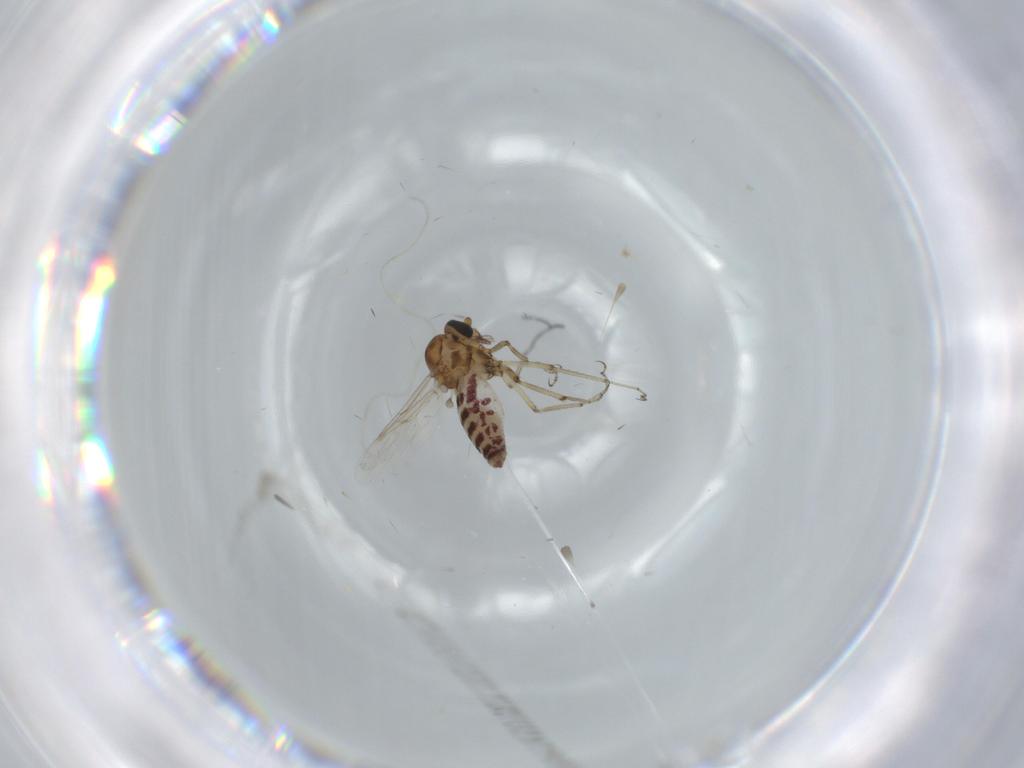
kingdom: Animalia
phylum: Arthropoda
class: Insecta
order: Diptera
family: Ceratopogonidae
